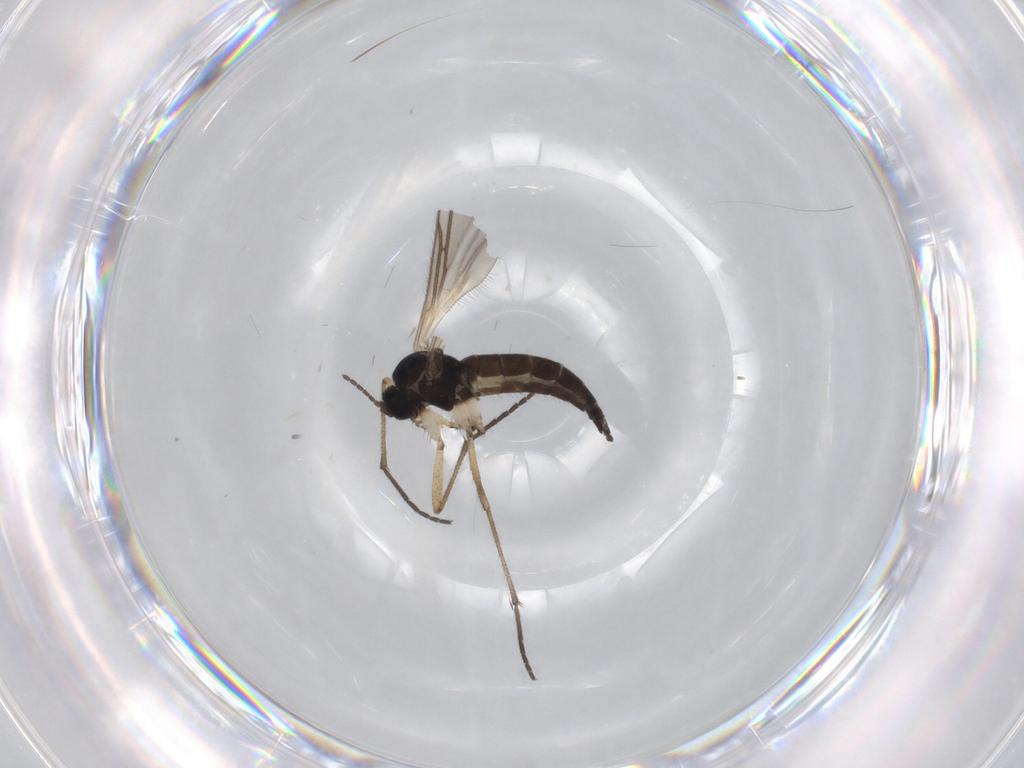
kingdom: Animalia
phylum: Arthropoda
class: Insecta
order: Diptera
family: Sciaridae
